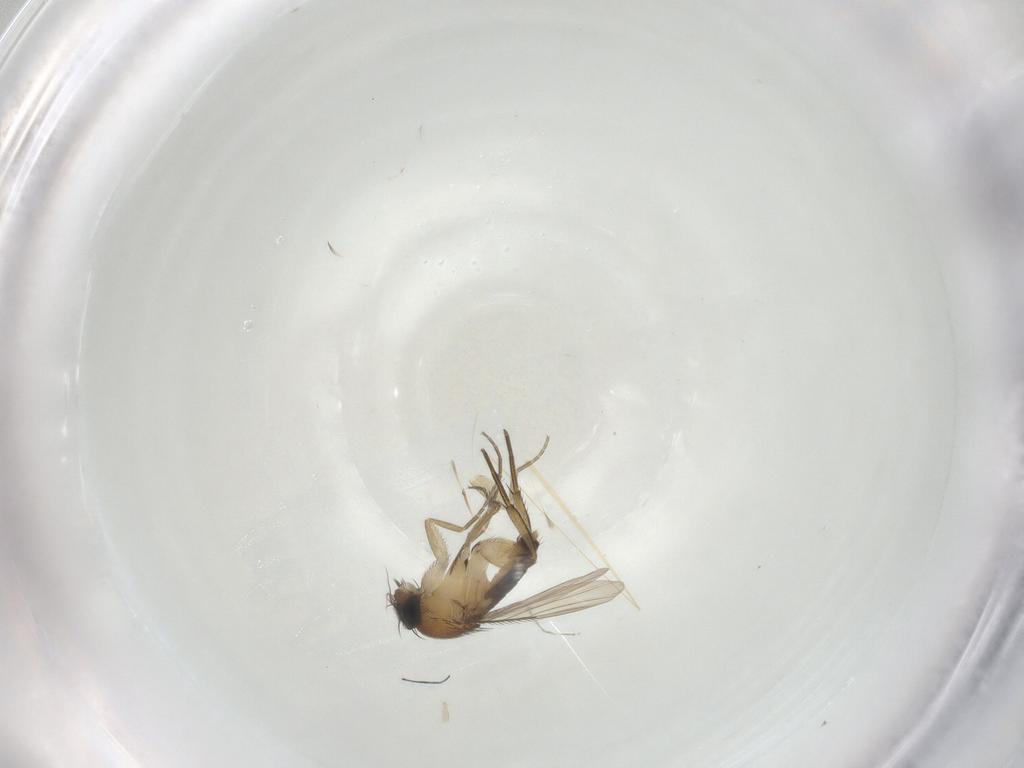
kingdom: Animalia
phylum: Arthropoda
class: Insecta
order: Diptera
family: Phoridae
